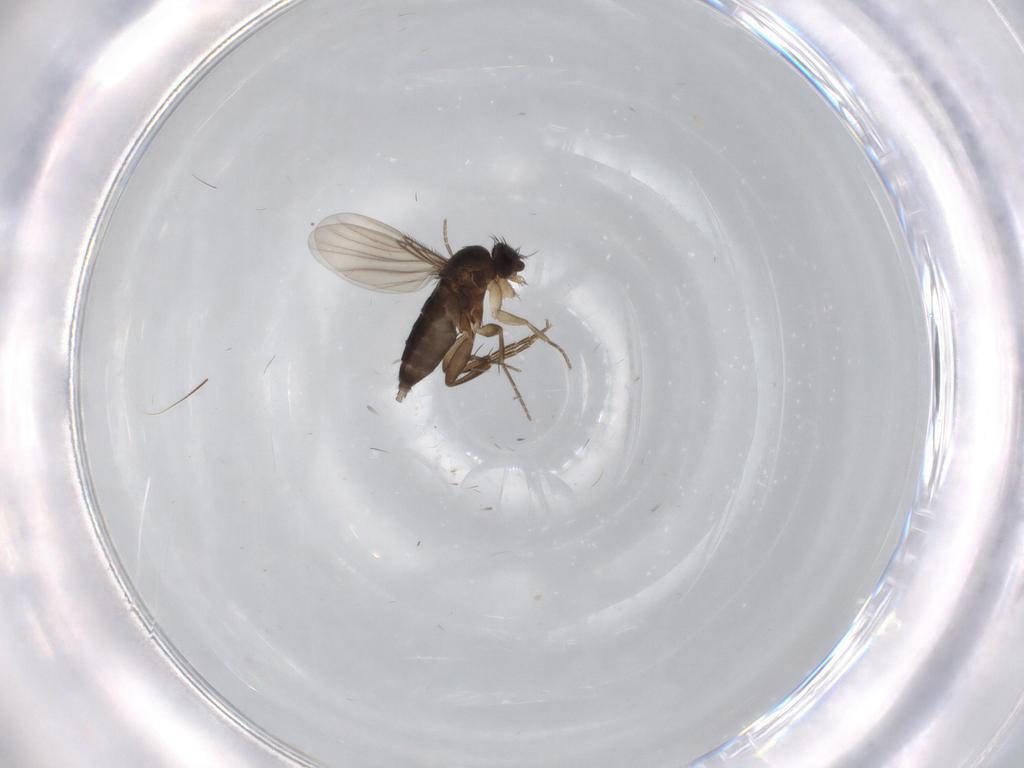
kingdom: Animalia
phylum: Arthropoda
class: Insecta
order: Diptera
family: Phoridae
